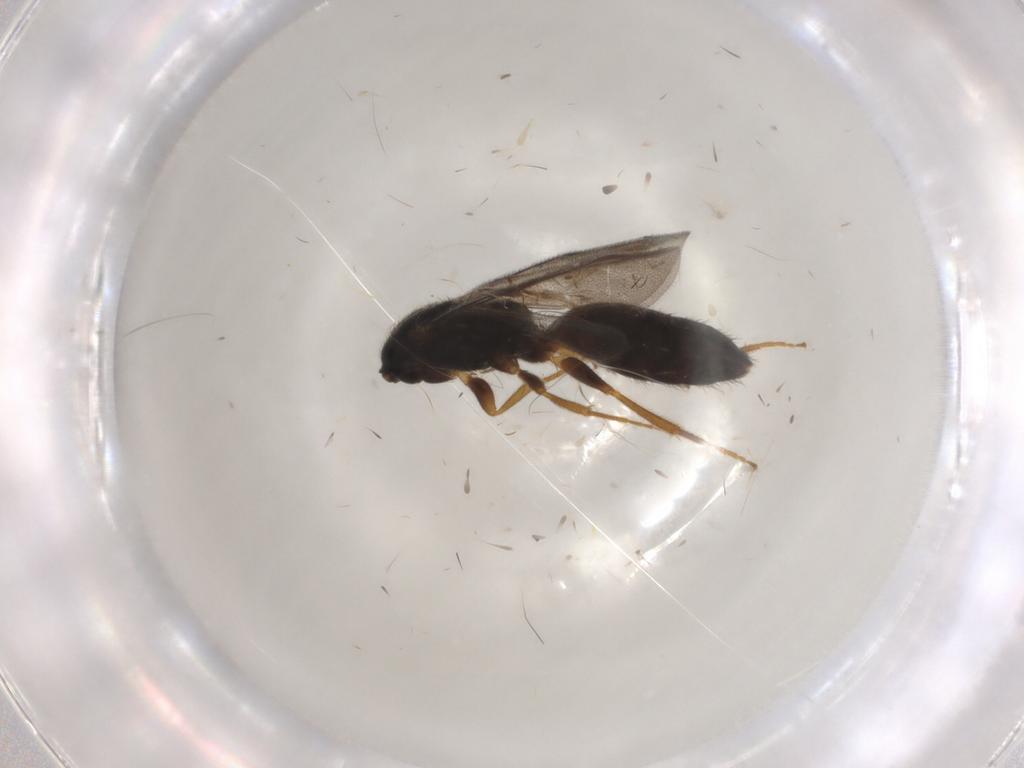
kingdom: Animalia
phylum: Arthropoda
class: Insecta
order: Hymenoptera
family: Bethylidae
